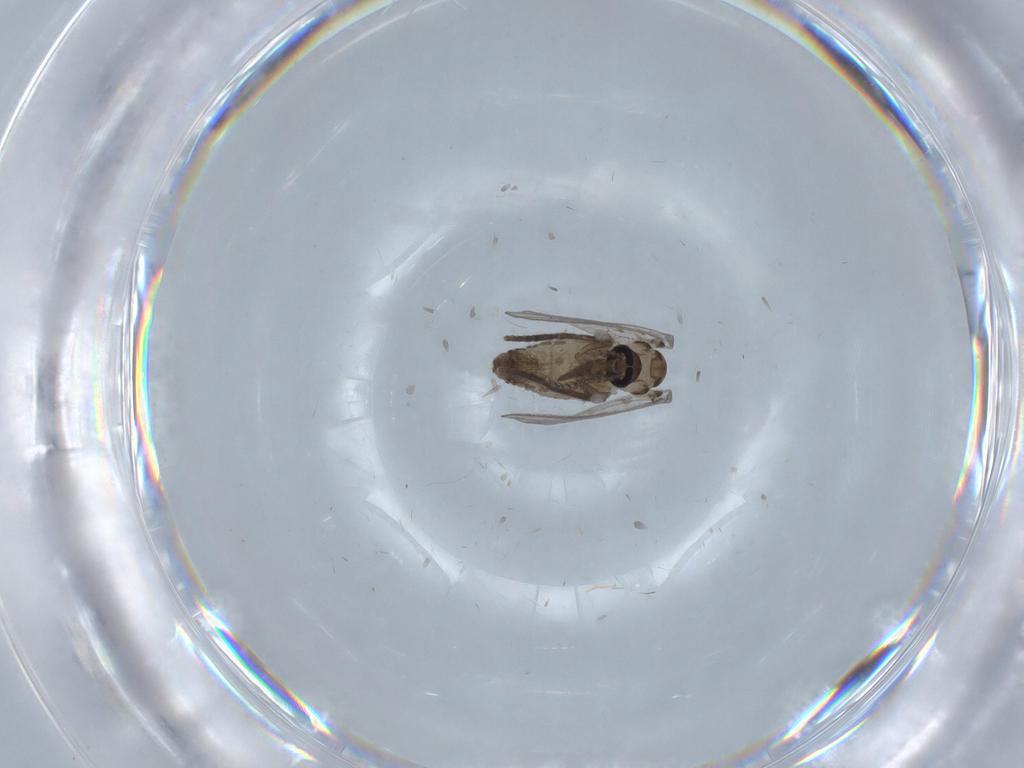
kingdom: Animalia
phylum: Arthropoda
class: Insecta
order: Diptera
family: Psychodidae
